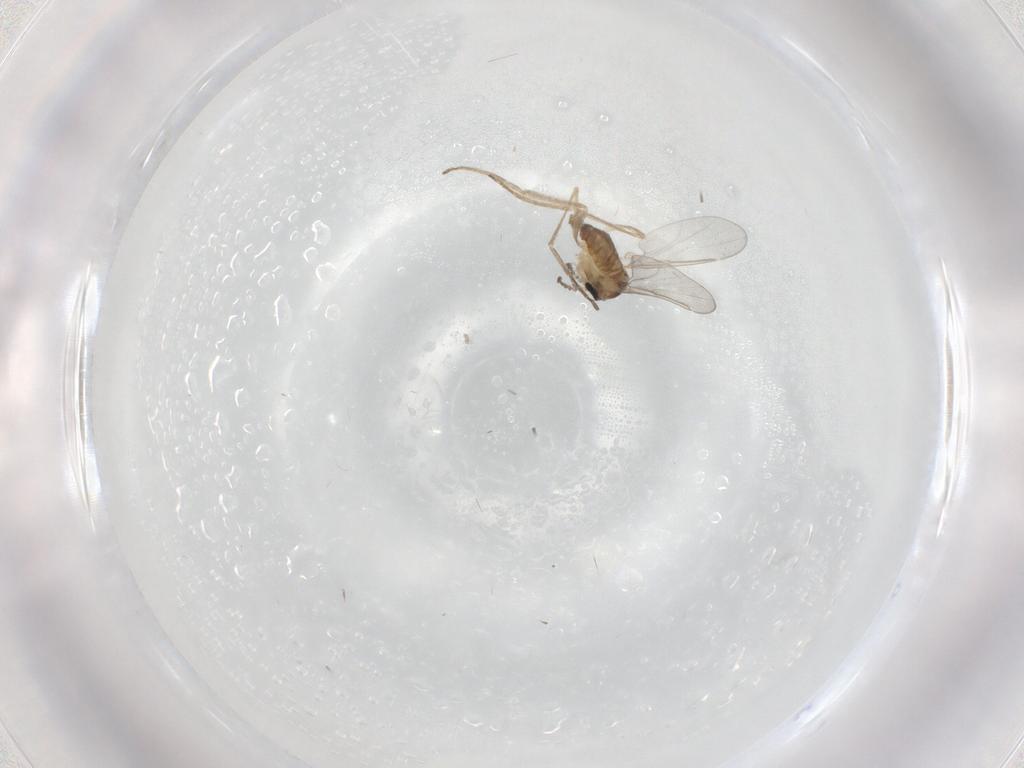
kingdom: Animalia
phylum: Arthropoda
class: Insecta
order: Diptera
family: Cecidomyiidae
